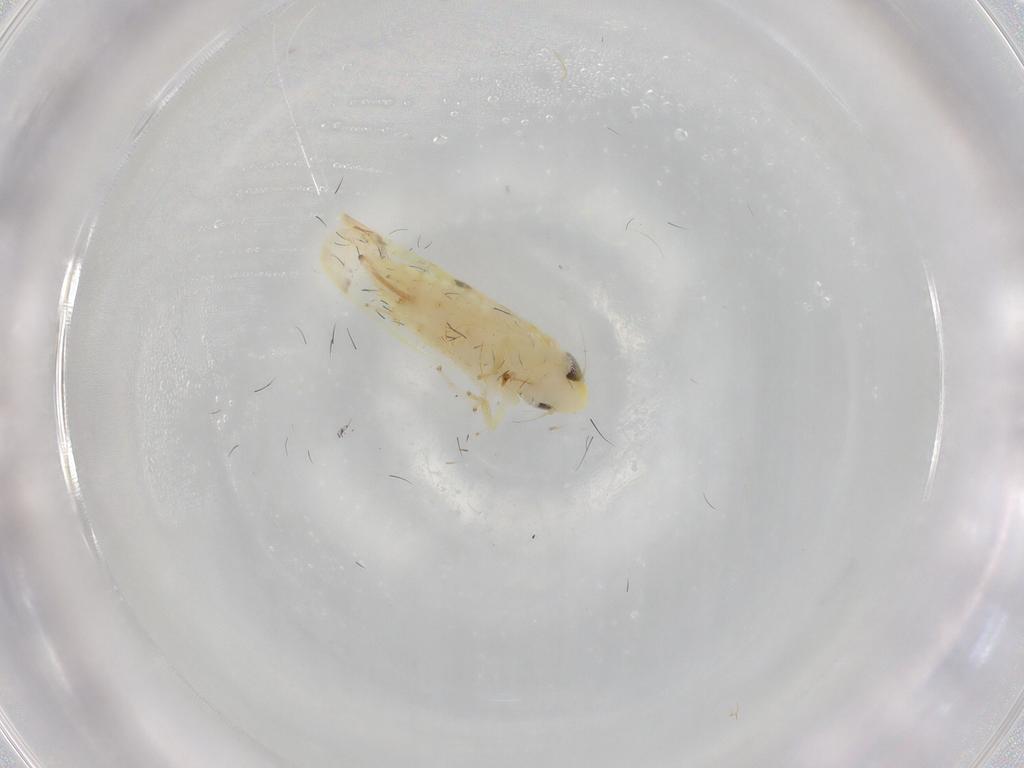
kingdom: Animalia
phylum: Arthropoda
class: Insecta
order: Hemiptera
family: Cicadellidae
